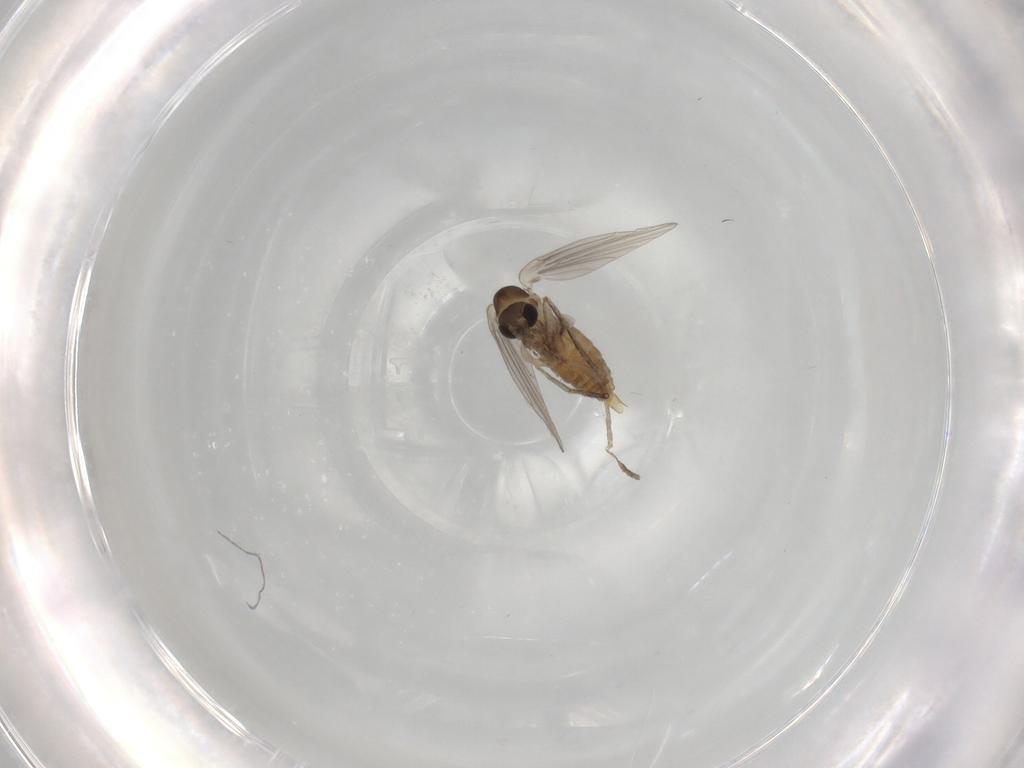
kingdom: Animalia
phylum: Arthropoda
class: Insecta
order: Diptera
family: Psychodidae
